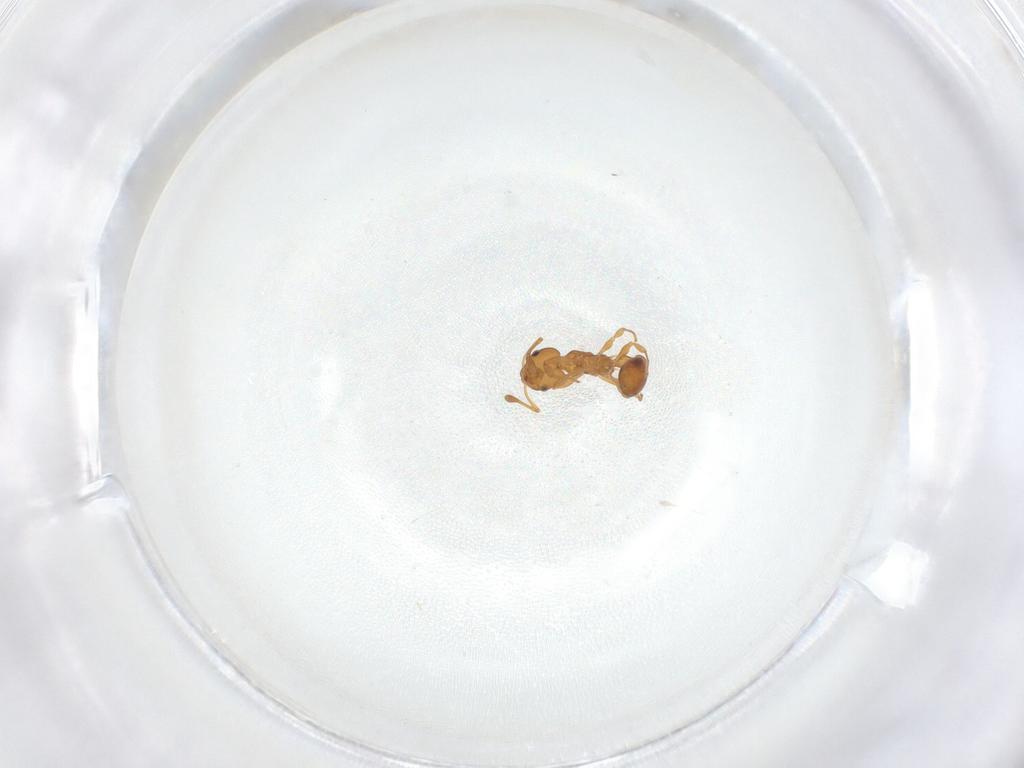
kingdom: Animalia
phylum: Arthropoda
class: Insecta
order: Hymenoptera
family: Formicidae
